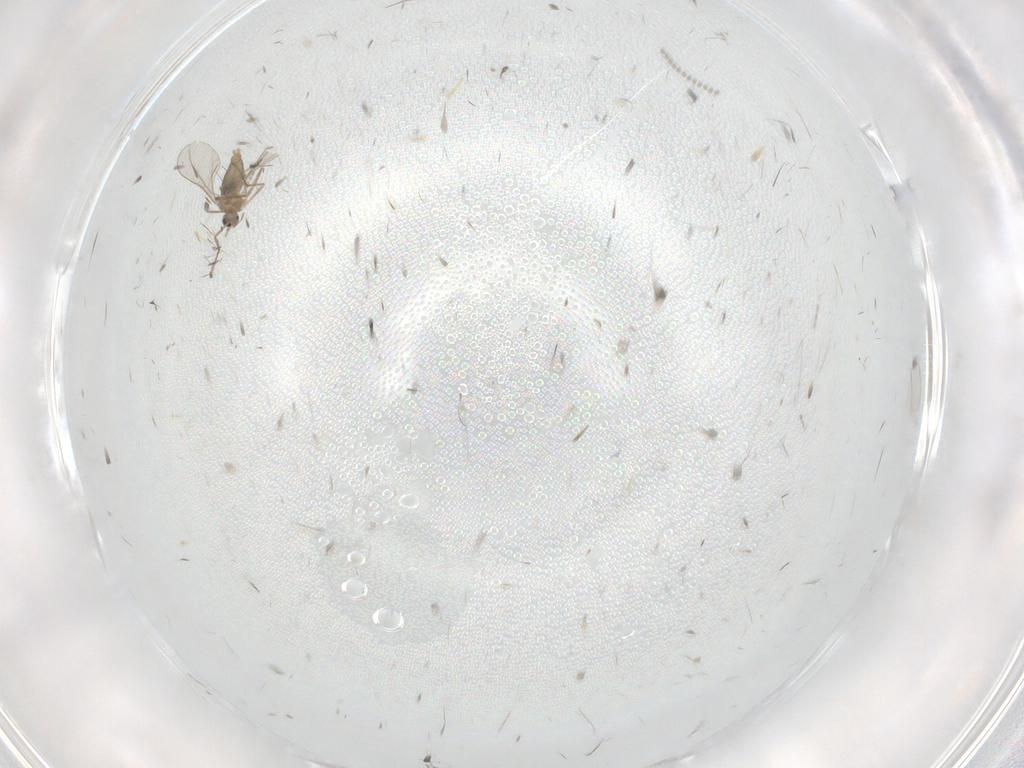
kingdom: Animalia
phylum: Arthropoda
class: Insecta
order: Diptera
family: Cecidomyiidae
